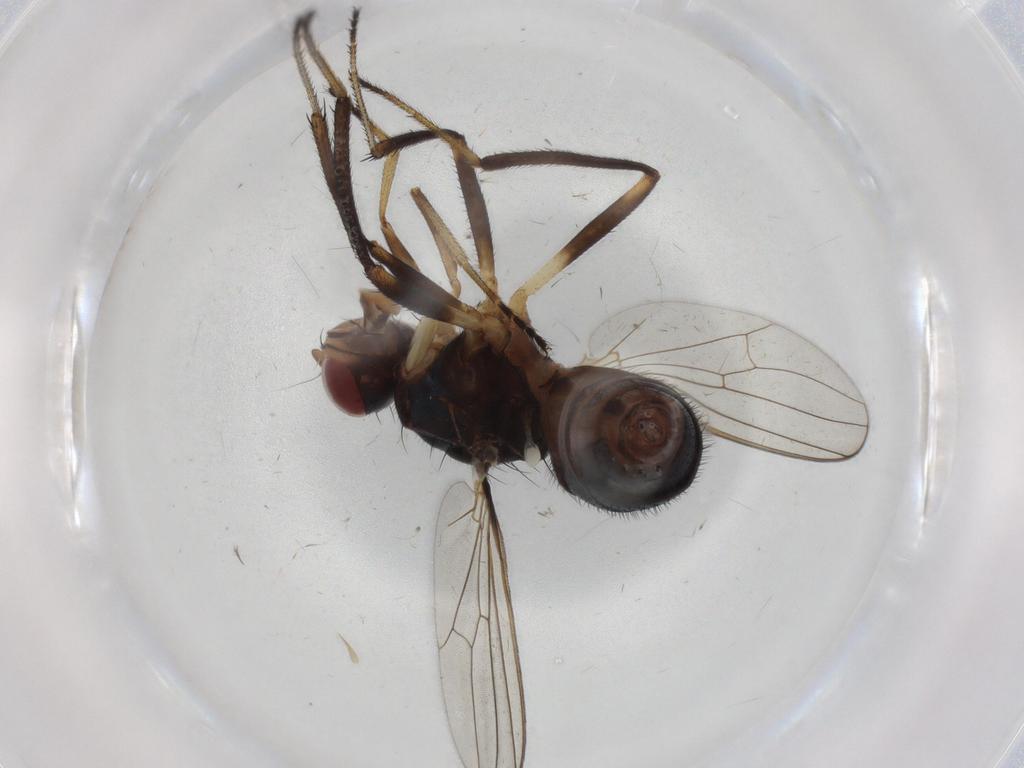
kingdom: Animalia
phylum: Arthropoda
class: Insecta
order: Diptera
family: Sepsidae
